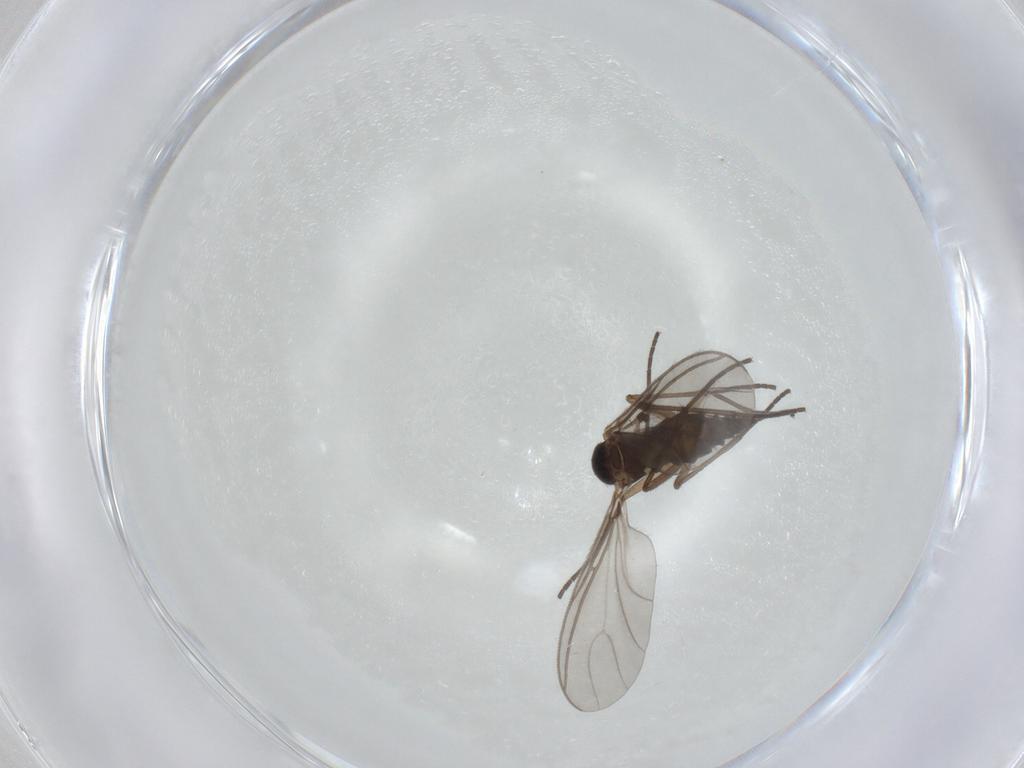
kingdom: Animalia
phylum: Arthropoda
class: Insecta
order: Diptera
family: Sciaridae
